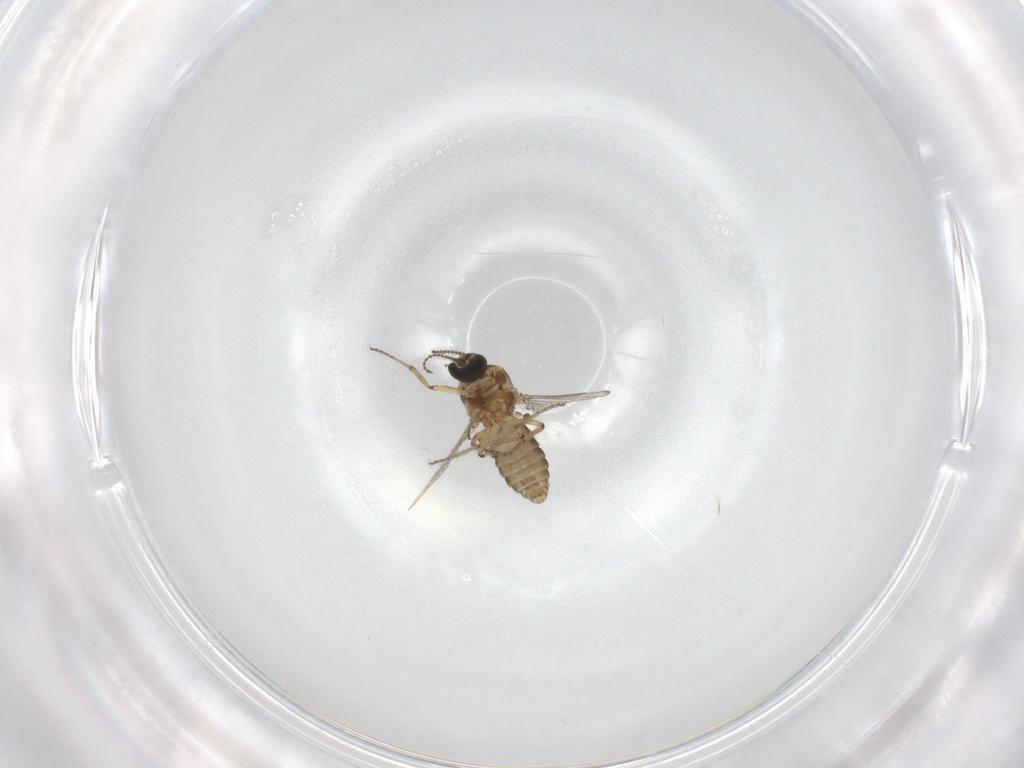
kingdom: Animalia
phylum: Arthropoda
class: Insecta
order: Diptera
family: Ceratopogonidae
